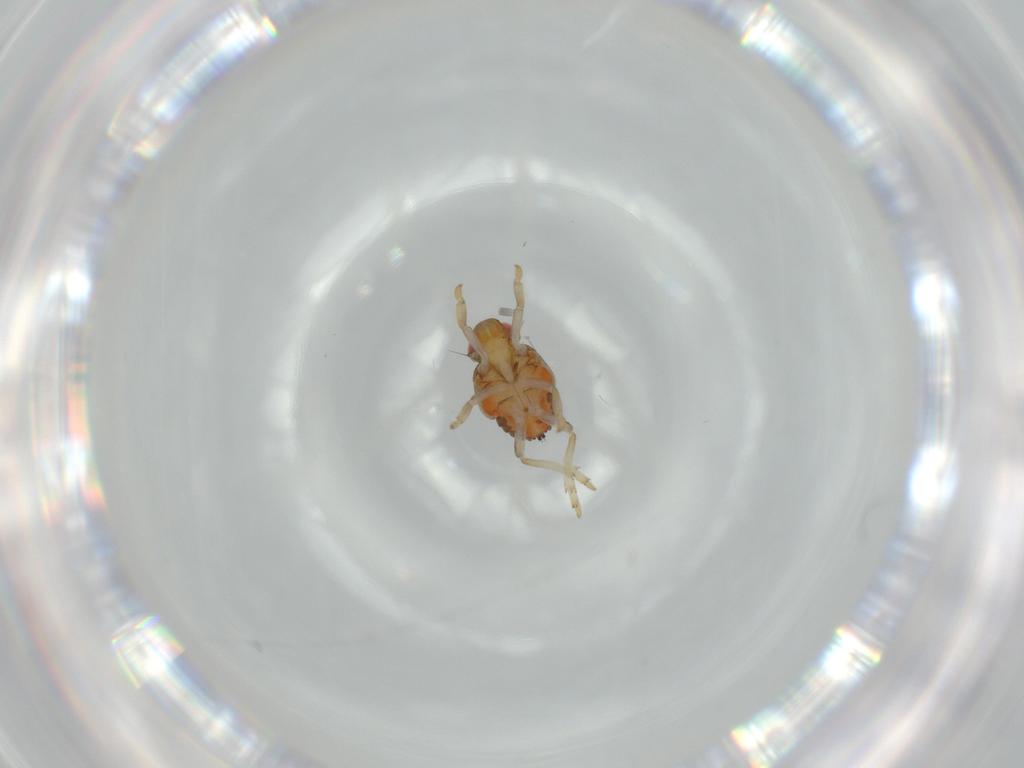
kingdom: Animalia
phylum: Arthropoda
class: Insecta
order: Hemiptera
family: Issidae
